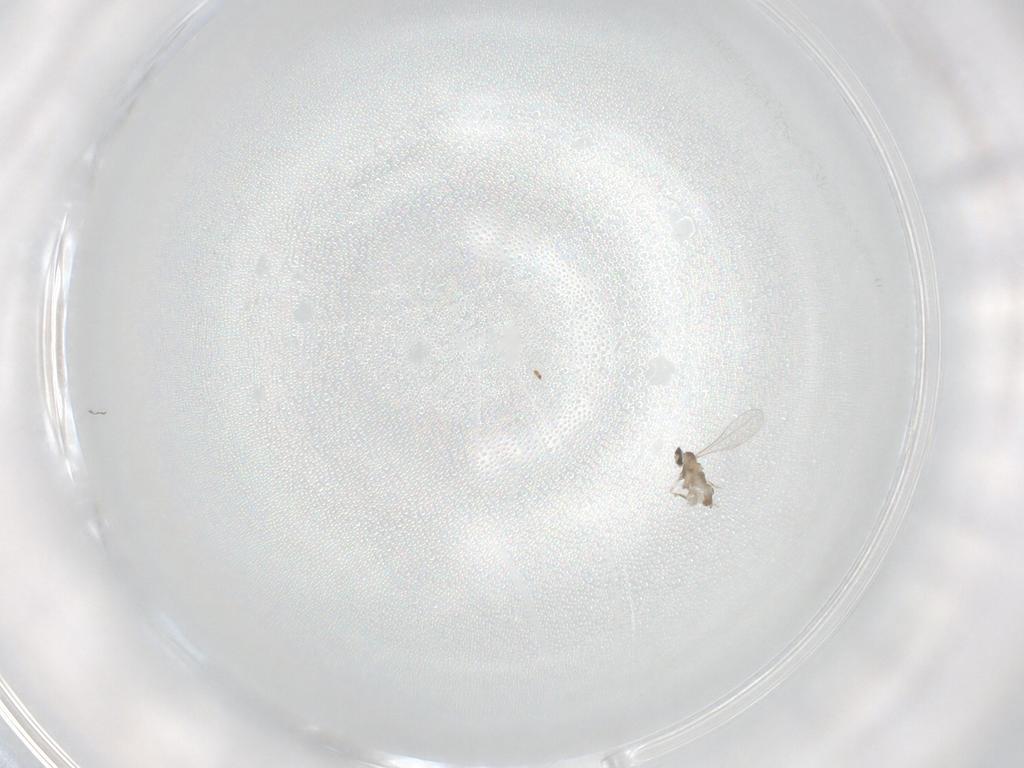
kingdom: Animalia
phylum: Arthropoda
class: Insecta
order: Diptera
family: Cecidomyiidae
